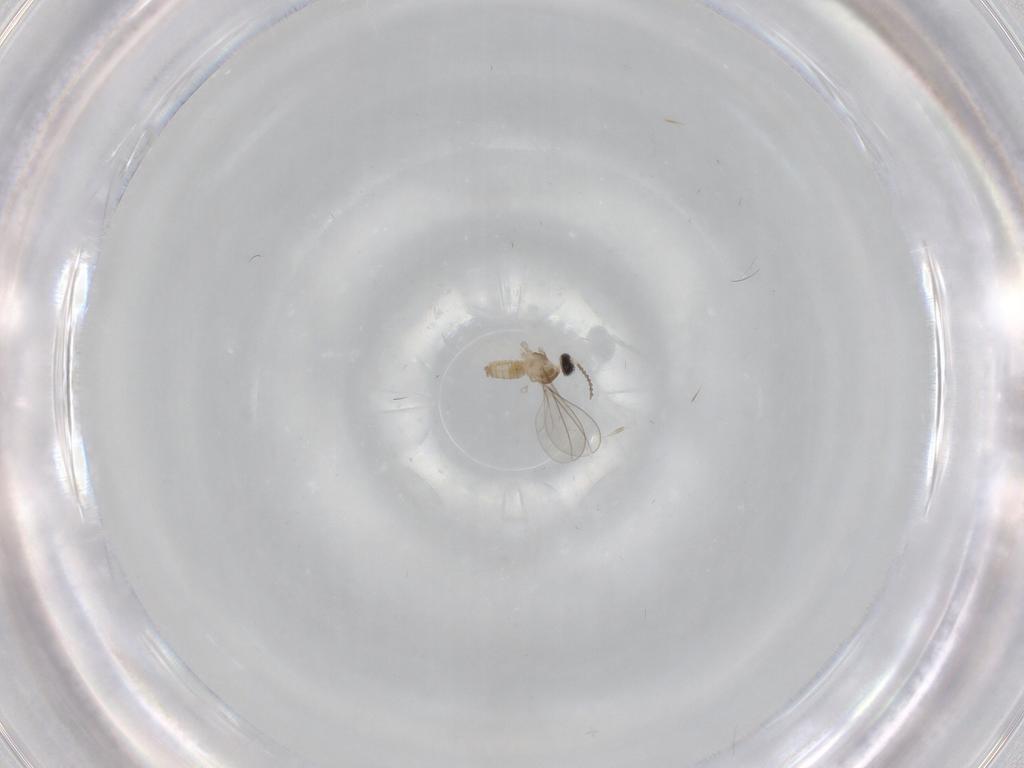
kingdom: Animalia
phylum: Arthropoda
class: Insecta
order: Diptera
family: Cecidomyiidae
